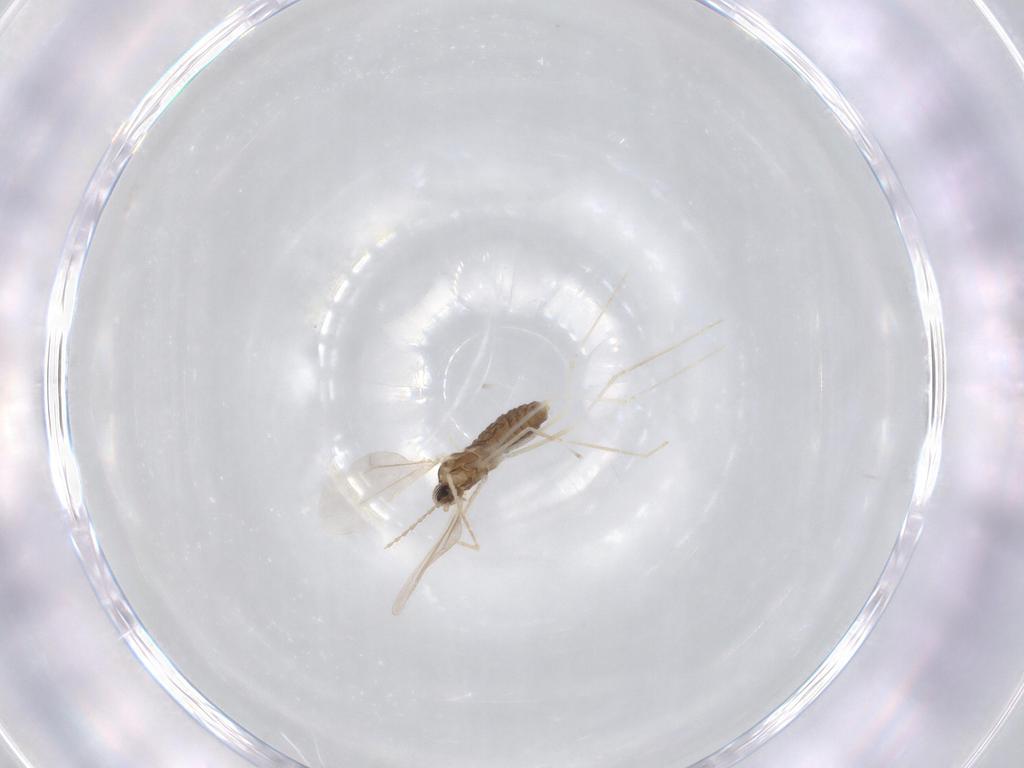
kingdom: Animalia
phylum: Arthropoda
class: Insecta
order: Diptera
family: Cecidomyiidae
